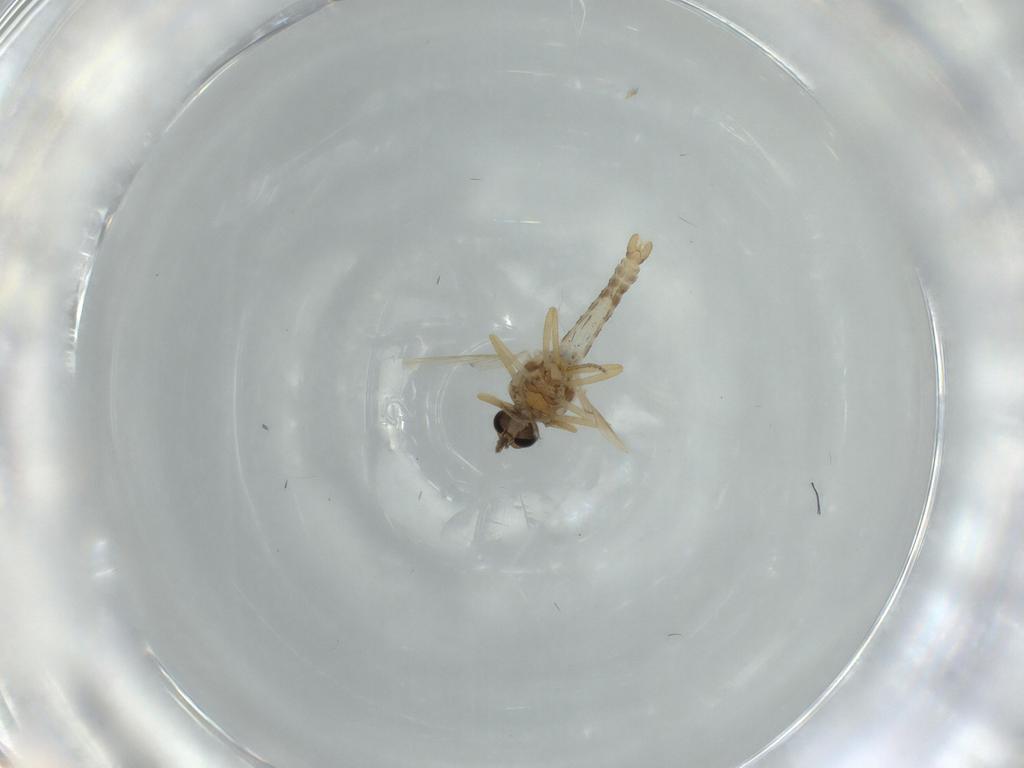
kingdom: Animalia
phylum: Arthropoda
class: Insecta
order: Diptera
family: Ceratopogonidae
